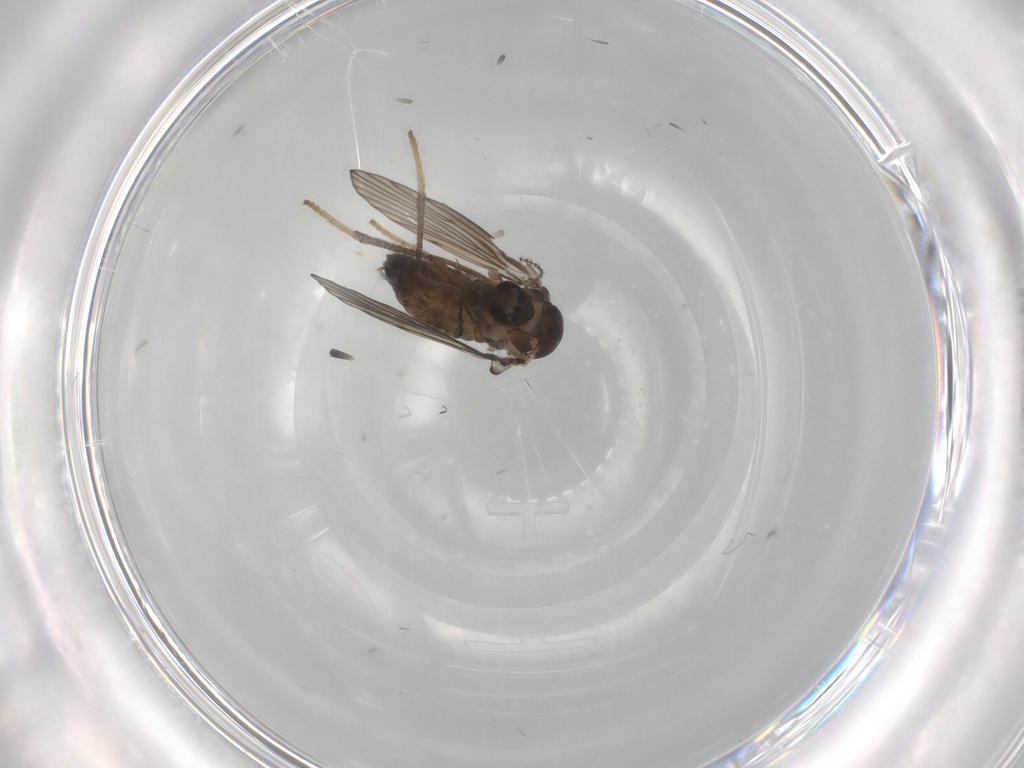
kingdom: Animalia
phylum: Arthropoda
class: Insecta
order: Diptera
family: Psychodidae
